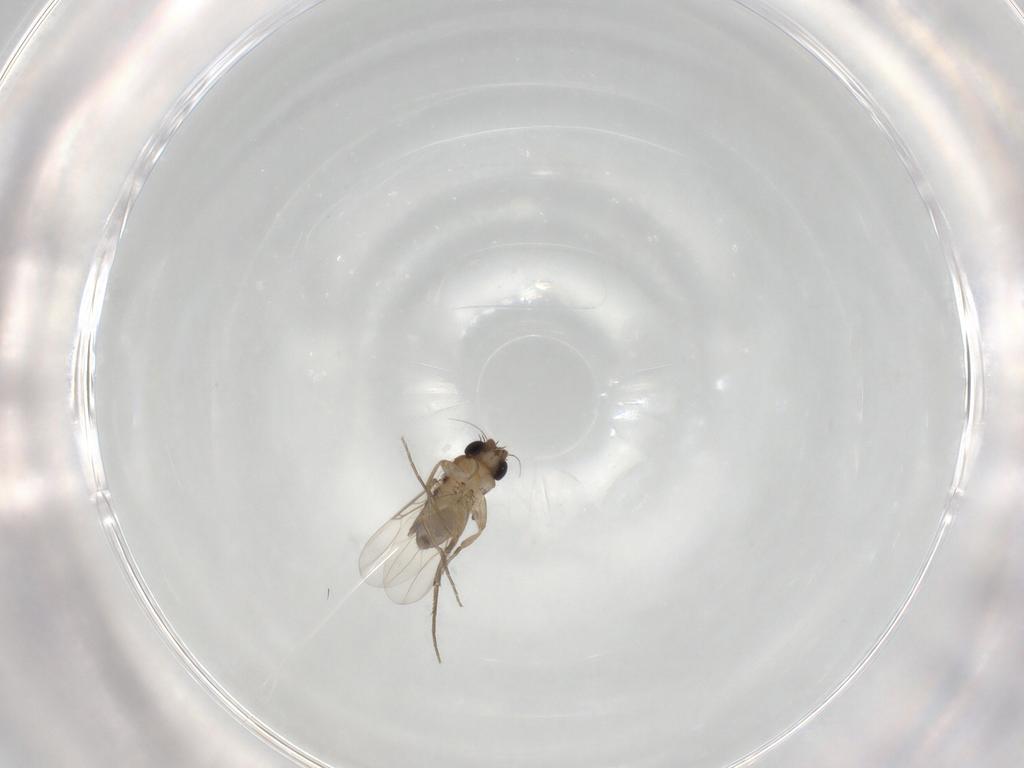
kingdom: Animalia
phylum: Arthropoda
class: Insecta
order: Diptera
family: Phoridae
